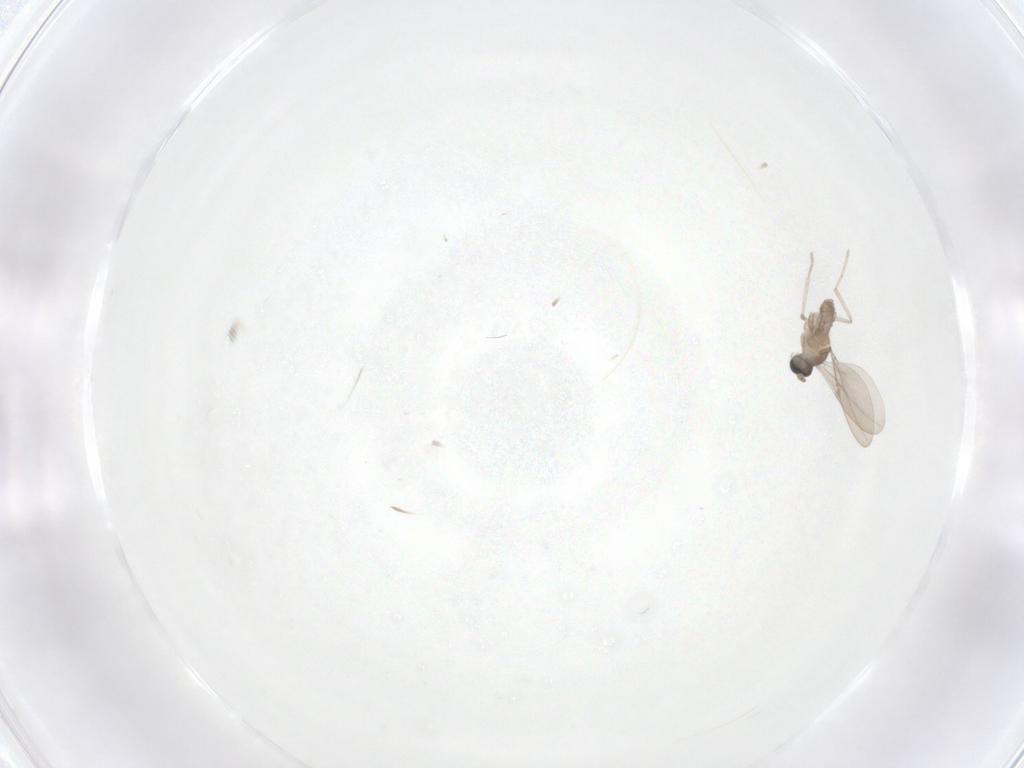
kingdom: Animalia
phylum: Arthropoda
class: Insecta
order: Diptera
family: Cecidomyiidae
